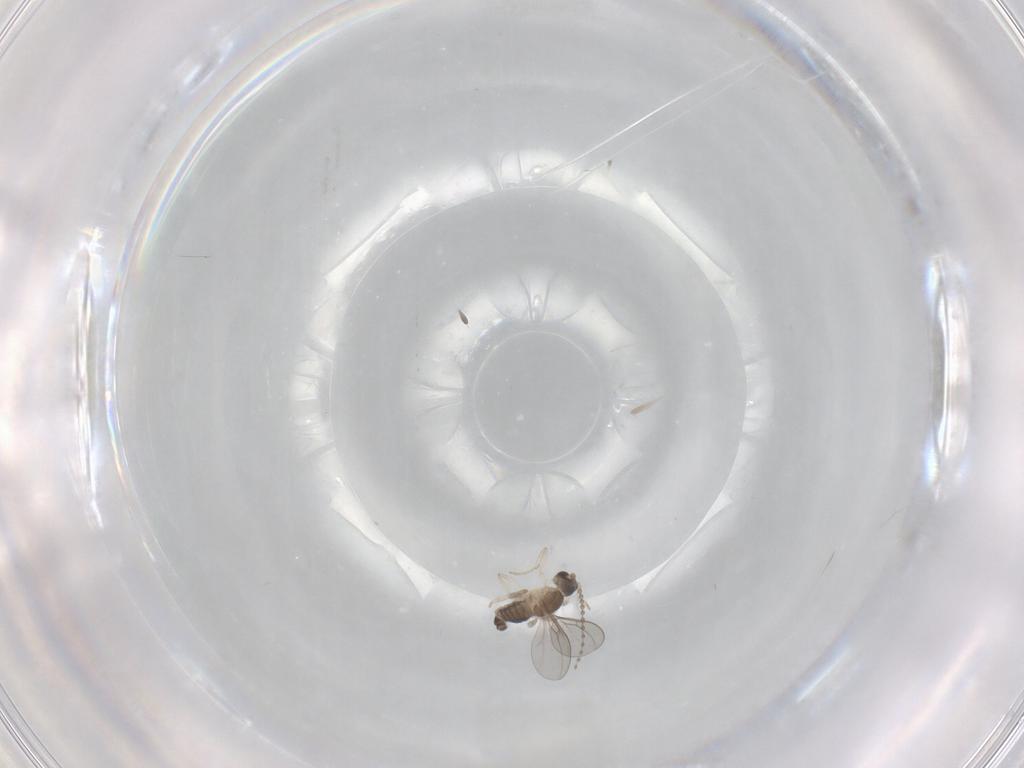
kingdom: Animalia
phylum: Arthropoda
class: Insecta
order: Diptera
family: Cecidomyiidae
